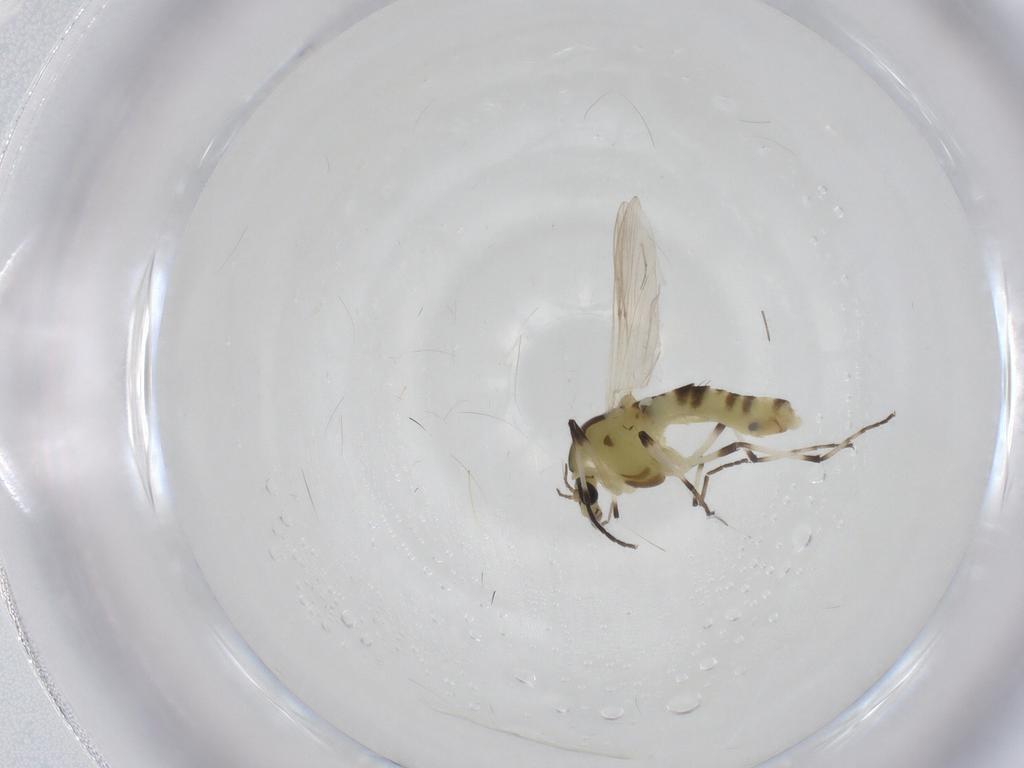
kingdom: Animalia
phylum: Arthropoda
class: Insecta
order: Diptera
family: Chironomidae
